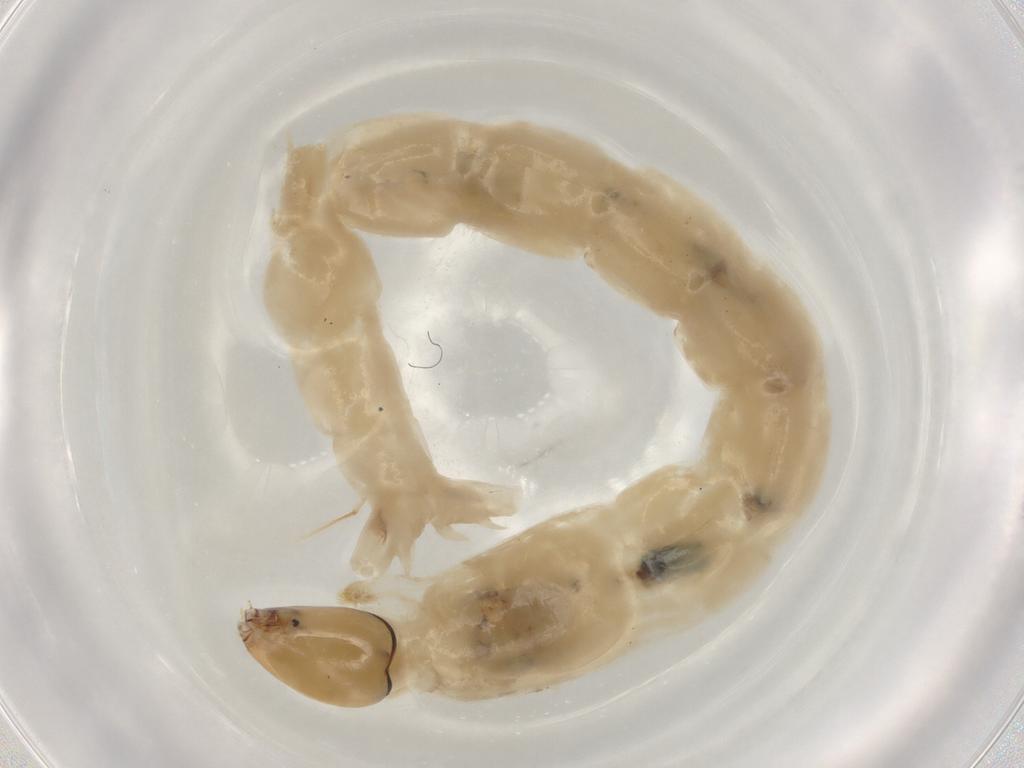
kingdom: Animalia
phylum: Arthropoda
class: Insecta
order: Diptera
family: Chironomidae
